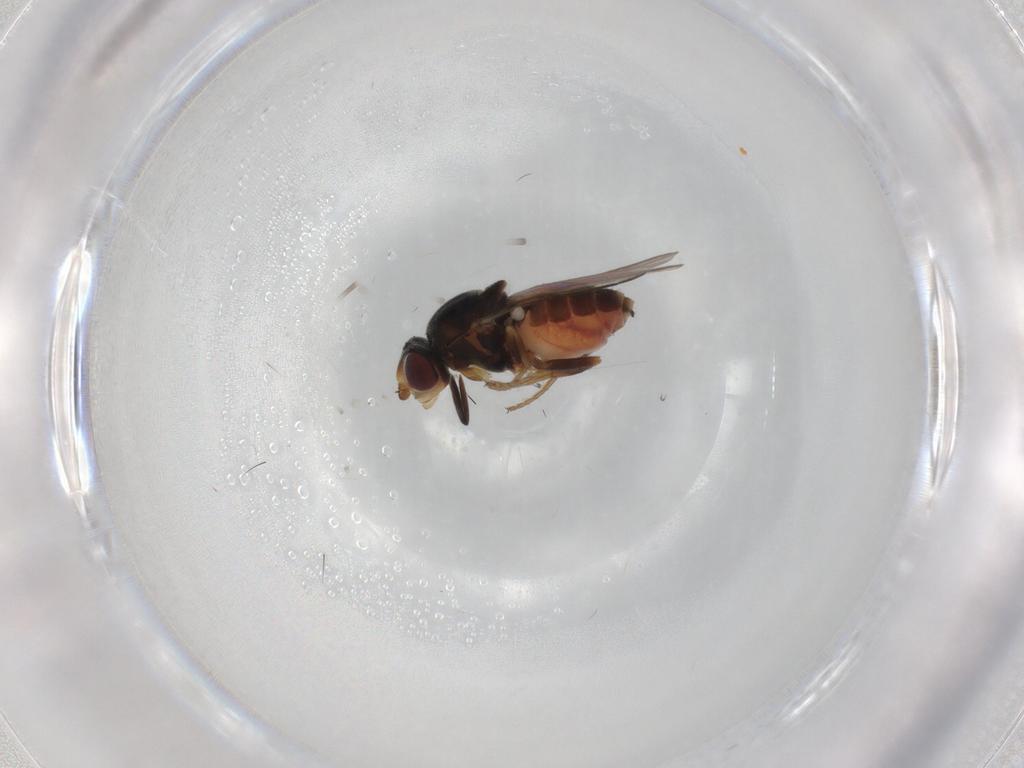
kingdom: Animalia
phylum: Arthropoda
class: Insecta
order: Diptera
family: Chloropidae
